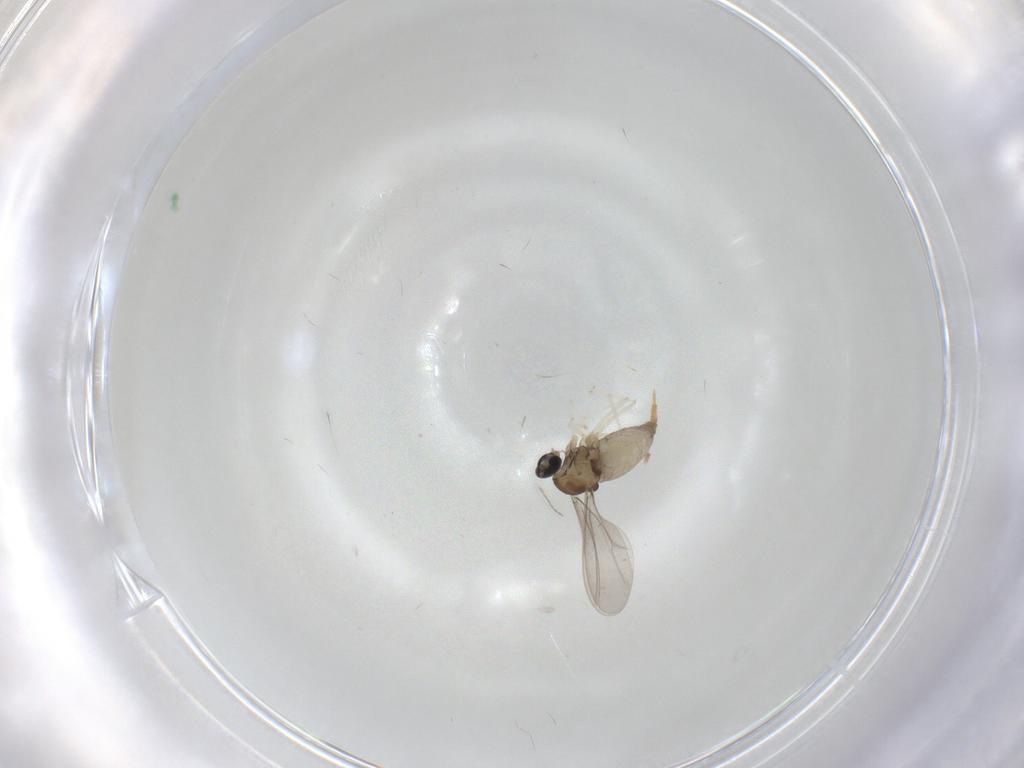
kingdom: Animalia
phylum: Arthropoda
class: Insecta
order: Diptera
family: Cecidomyiidae
